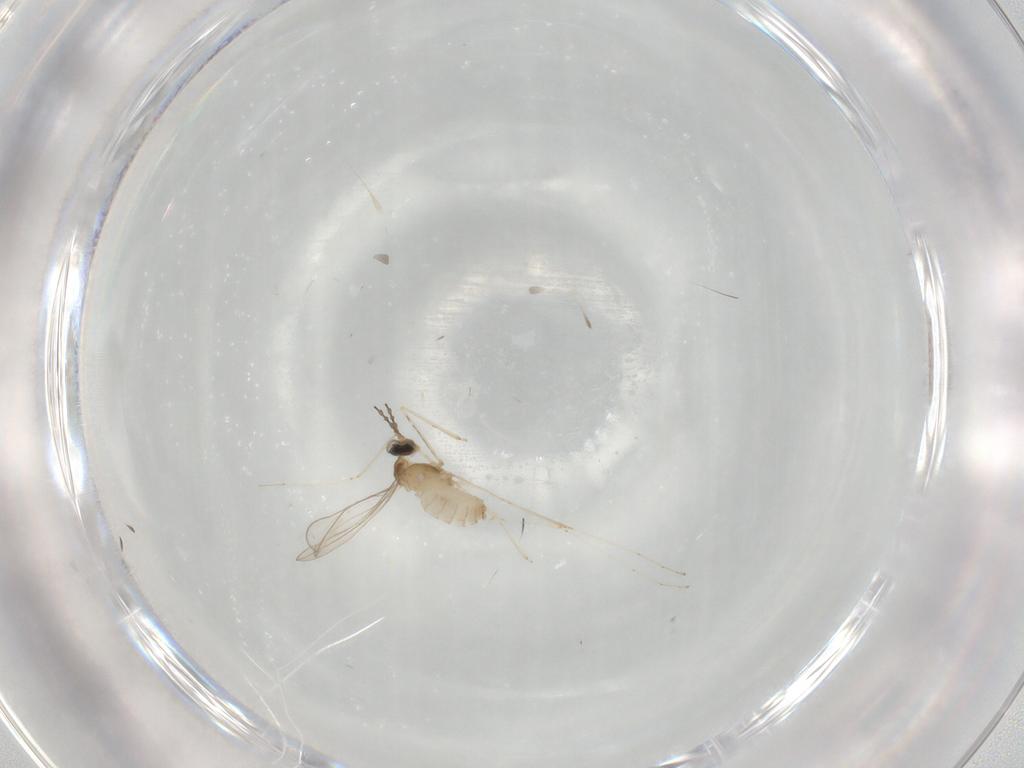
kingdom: Animalia
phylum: Arthropoda
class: Insecta
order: Diptera
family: Cecidomyiidae
